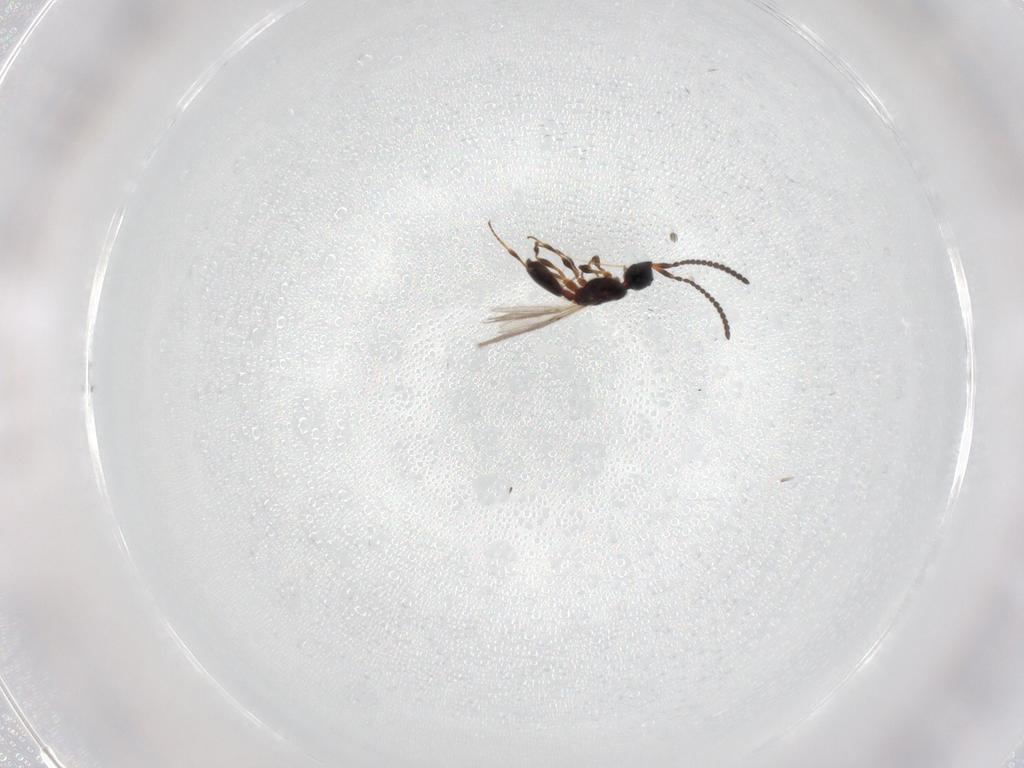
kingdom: Animalia
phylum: Arthropoda
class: Insecta
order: Hymenoptera
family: Diapriidae
